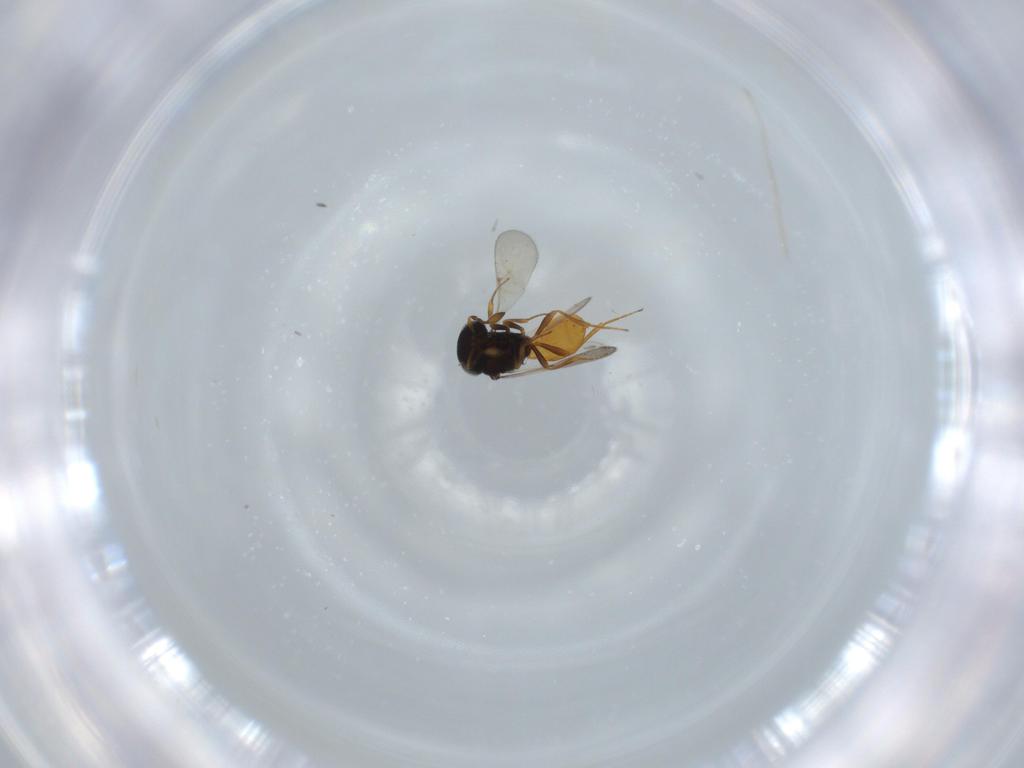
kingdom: Animalia
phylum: Arthropoda
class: Insecta
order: Hymenoptera
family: Scelionidae
